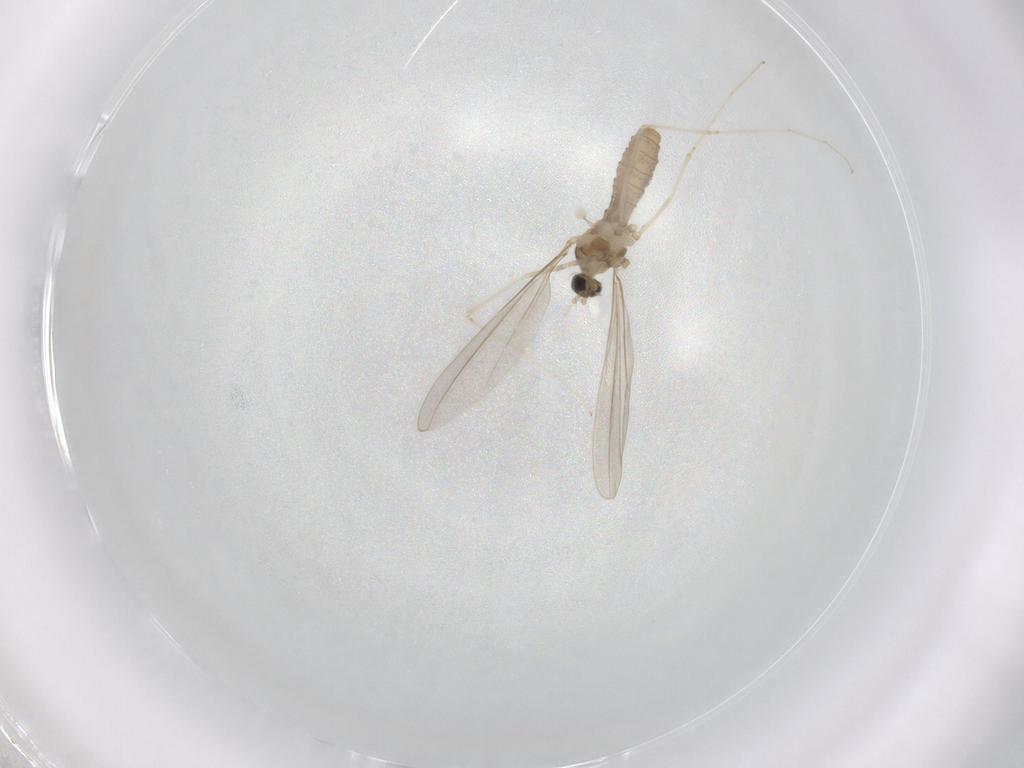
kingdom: Animalia
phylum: Arthropoda
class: Insecta
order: Diptera
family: Cecidomyiidae
